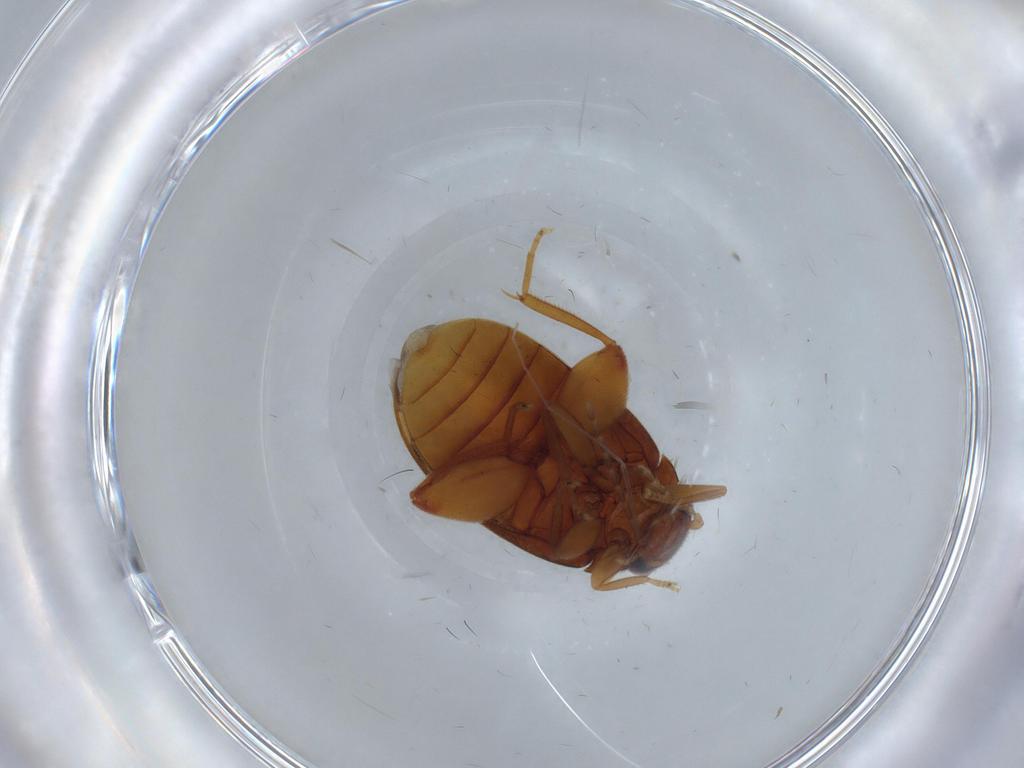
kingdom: Animalia
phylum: Arthropoda
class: Insecta
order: Coleoptera
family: Scirtidae
